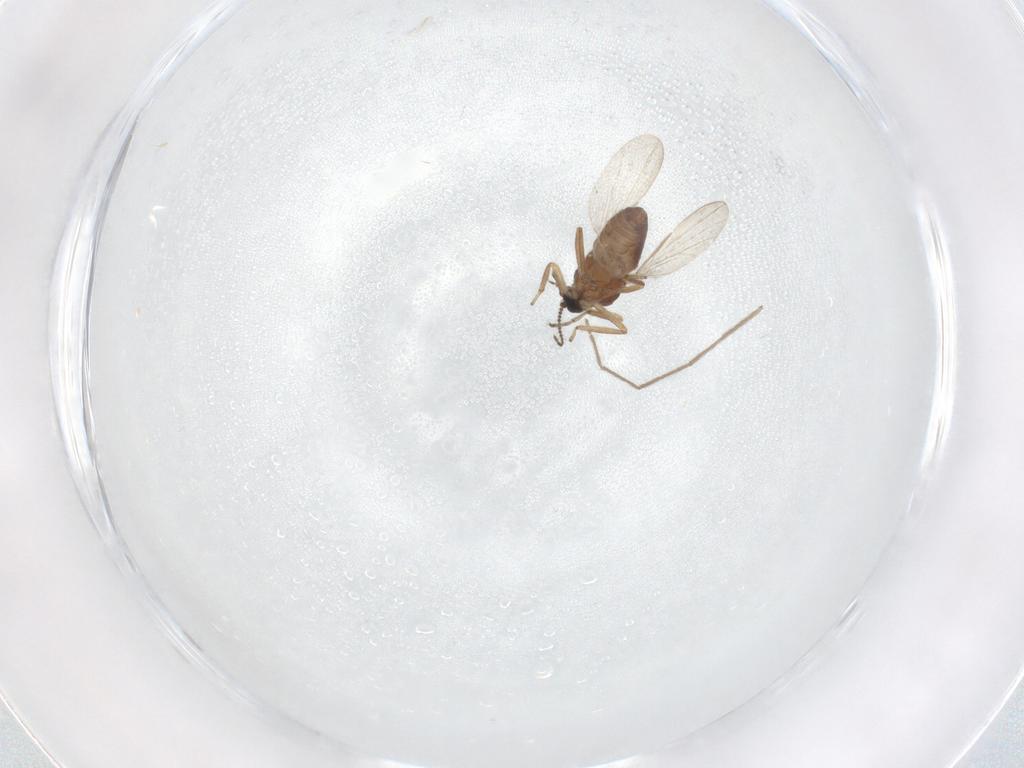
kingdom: Animalia
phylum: Arthropoda
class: Insecta
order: Diptera
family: Ceratopogonidae
